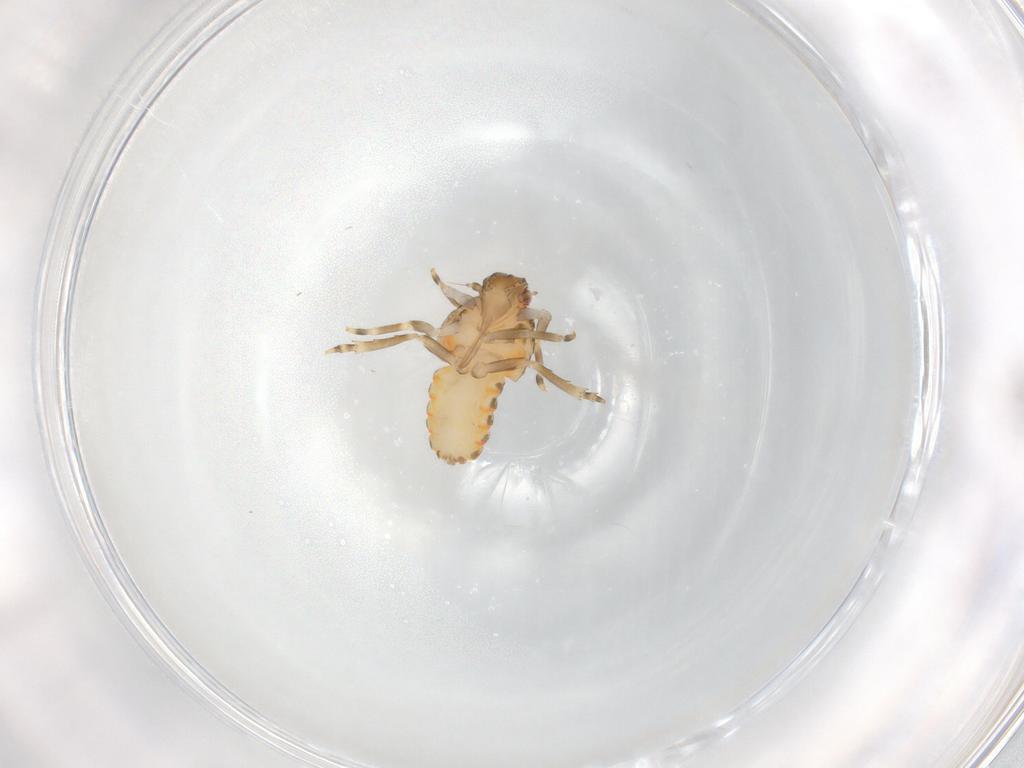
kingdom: Animalia
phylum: Arthropoda
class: Insecta
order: Hemiptera
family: Flatidae
